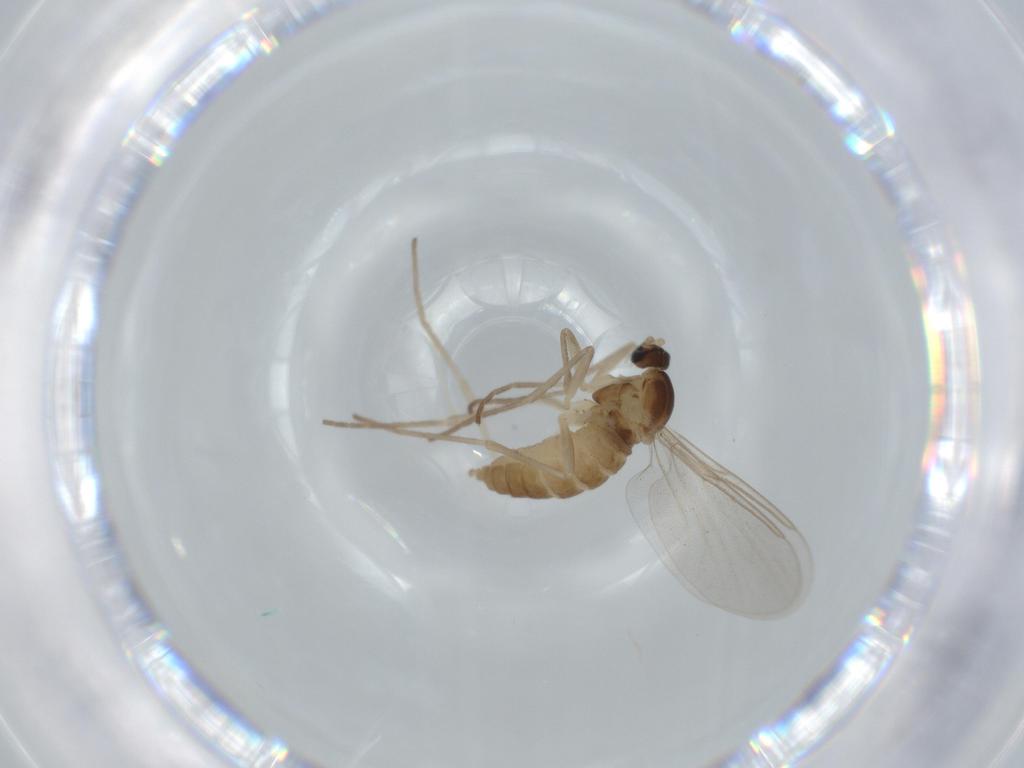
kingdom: Animalia
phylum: Arthropoda
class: Insecta
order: Diptera
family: Cecidomyiidae
